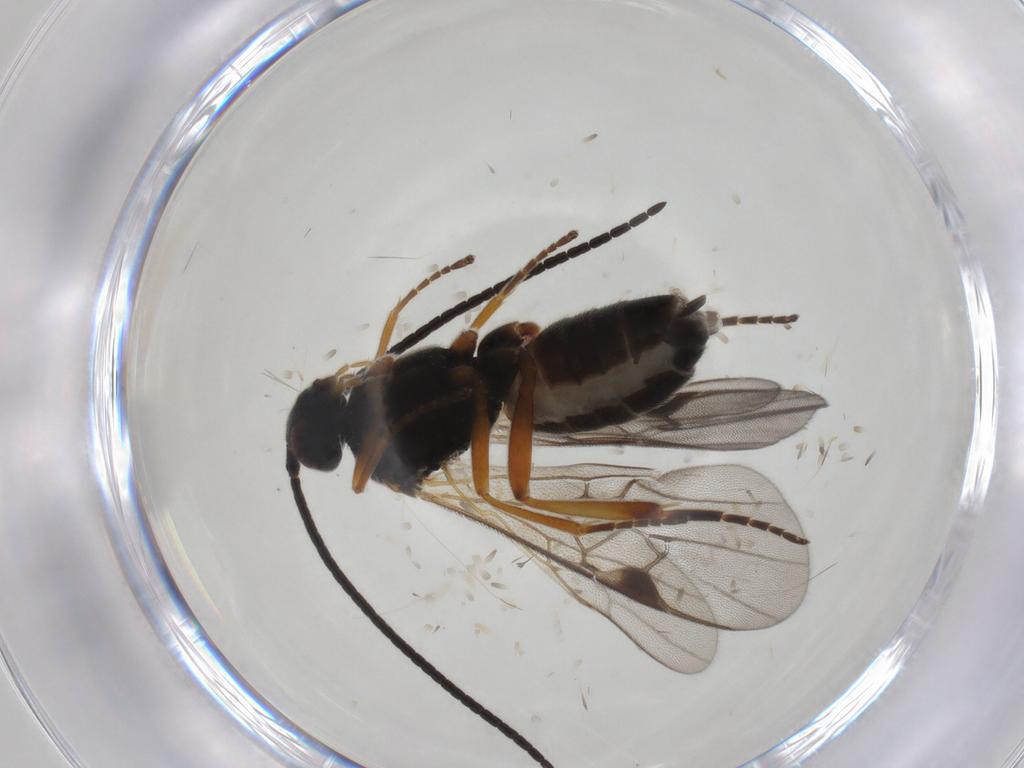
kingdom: Animalia
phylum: Arthropoda
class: Insecta
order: Hymenoptera
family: Braconidae
